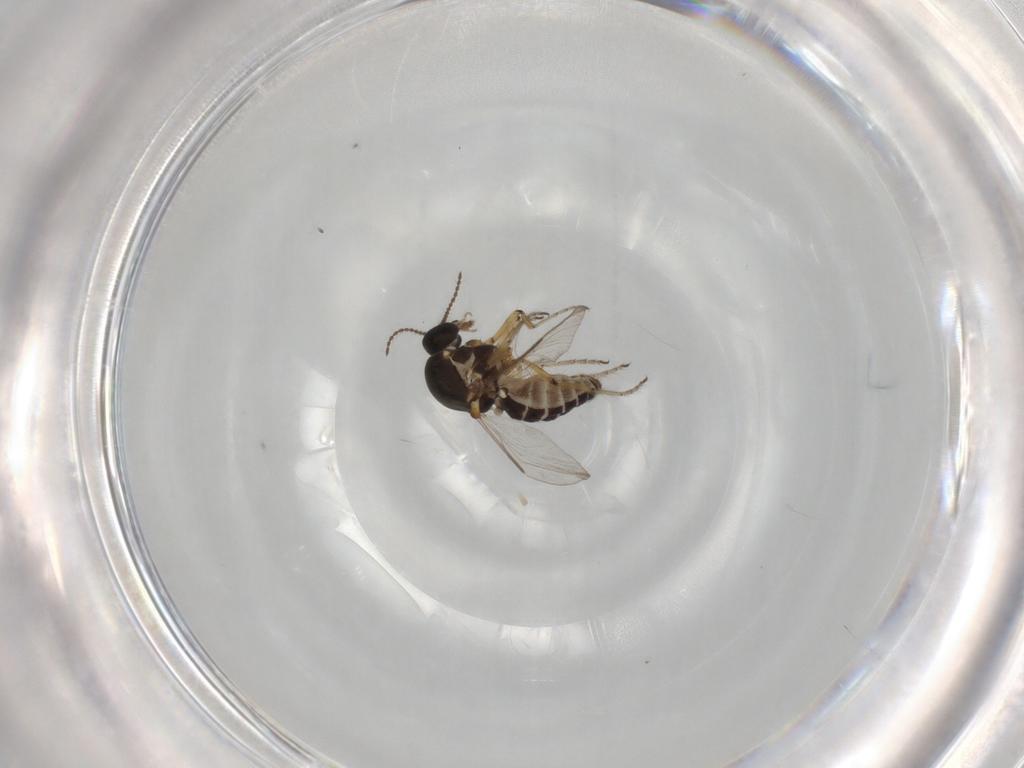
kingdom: Animalia
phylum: Arthropoda
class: Insecta
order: Diptera
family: Ceratopogonidae
